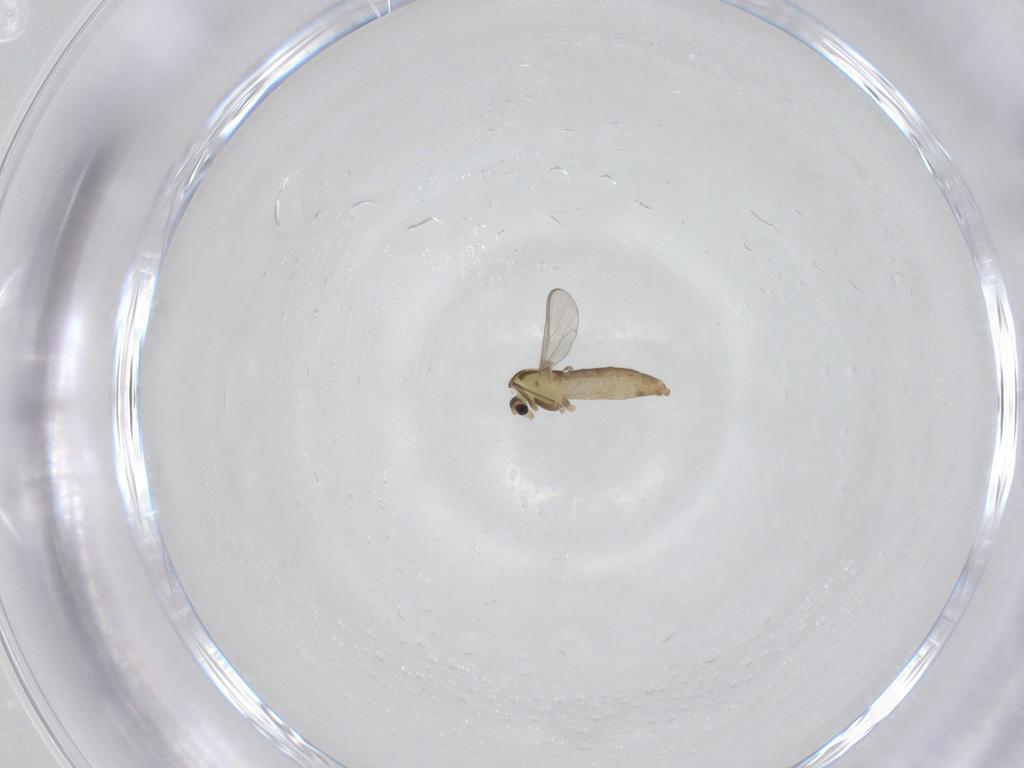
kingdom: Animalia
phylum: Arthropoda
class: Insecta
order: Diptera
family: Chironomidae
